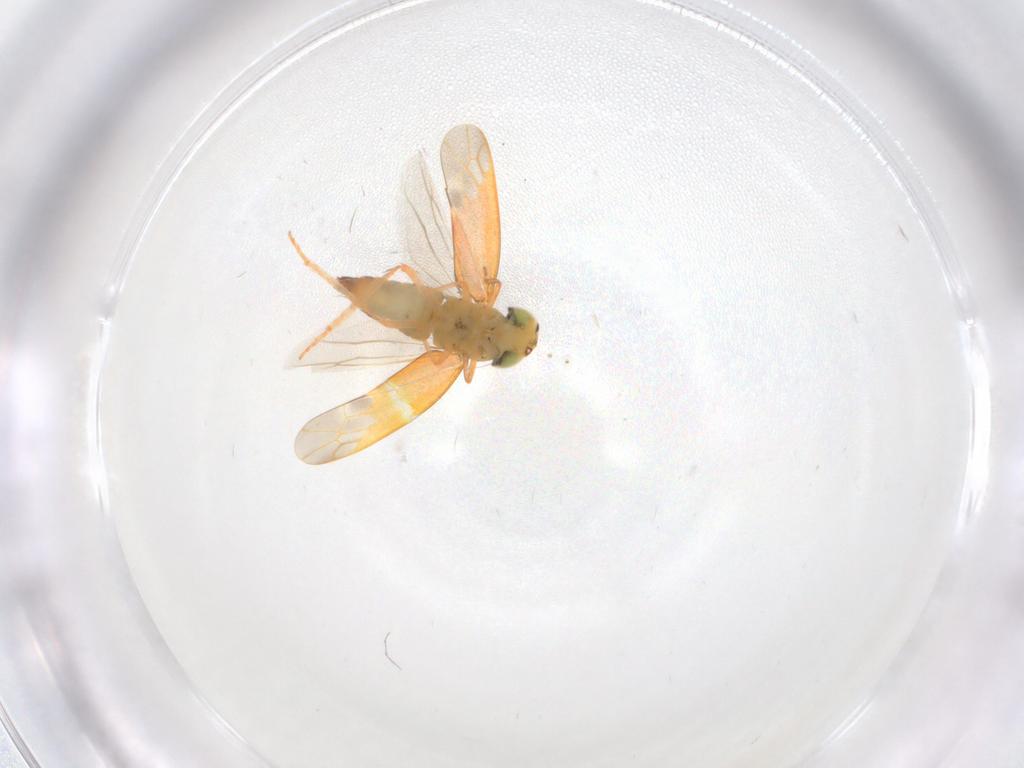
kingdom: Animalia
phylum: Arthropoda
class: Insecta
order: Hemiptera
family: Cicadellidae
